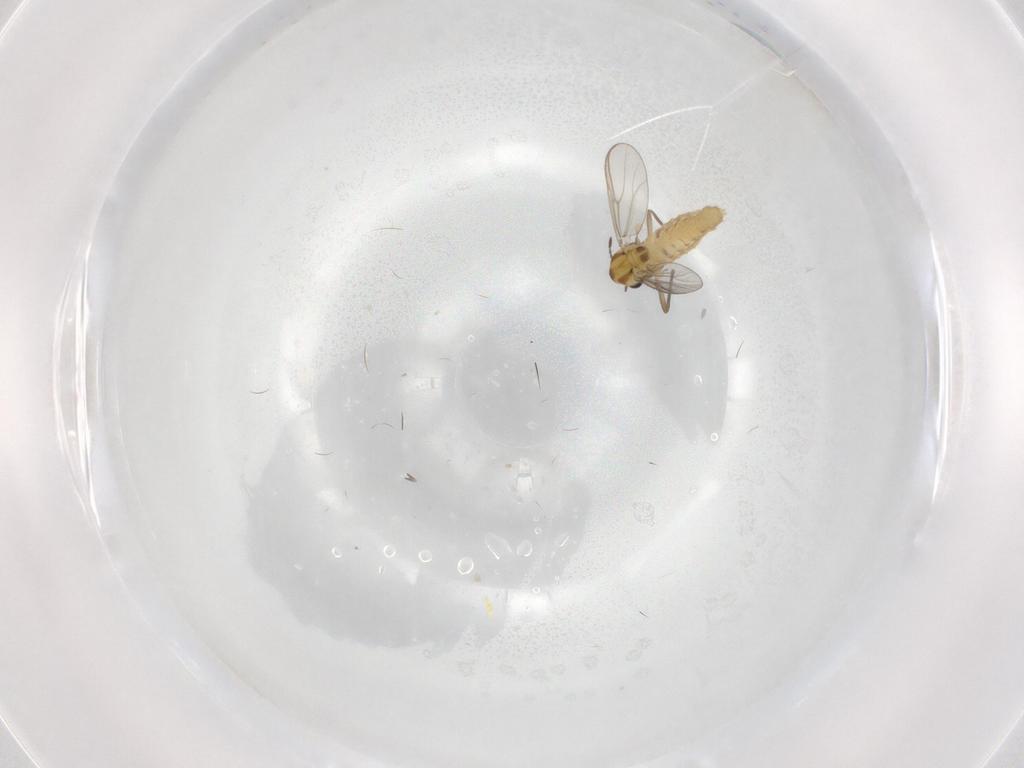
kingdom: Animalia
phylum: Arthropoda
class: Insecta
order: Diptera
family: Chironomidae
